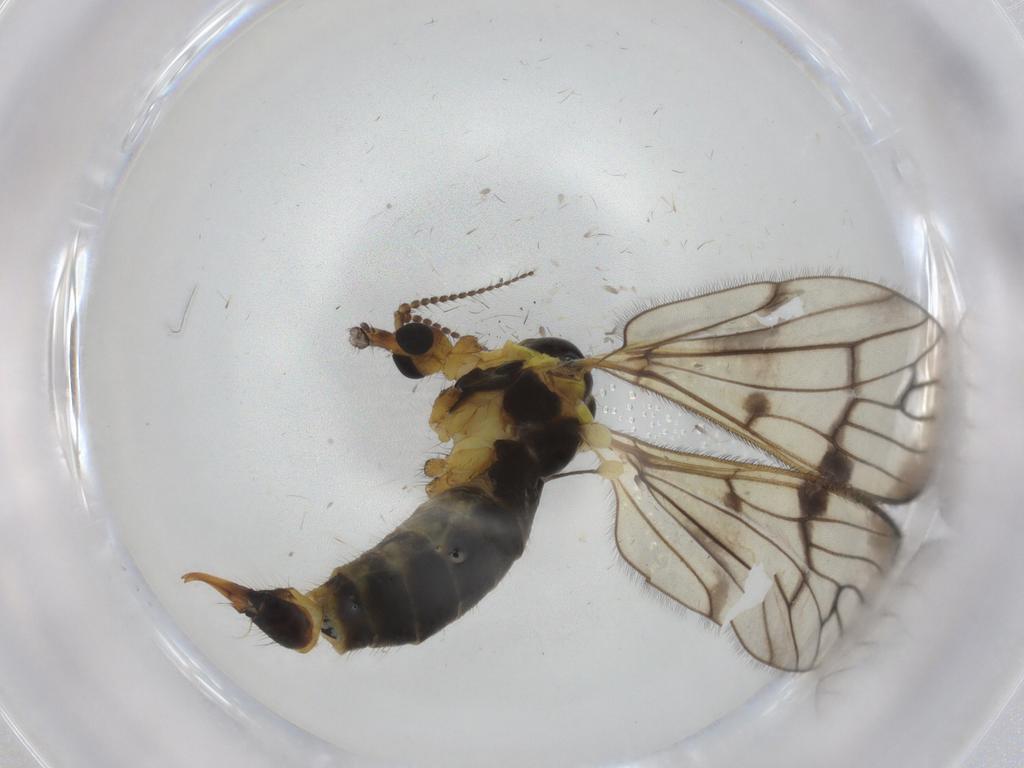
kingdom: Animalia
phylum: Arthropoda
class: Insecta
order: Diptera
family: Limoniidae
